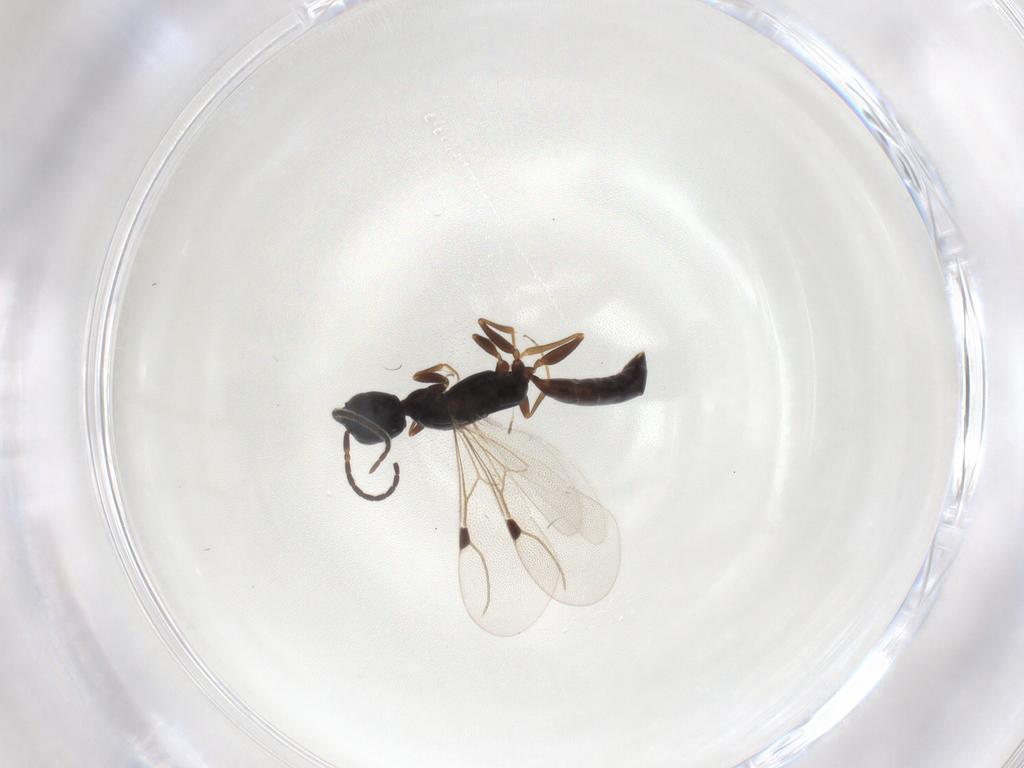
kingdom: Animalia
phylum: Arthropoda
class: Insecta
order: Hymenoptera
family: Bethylidae
